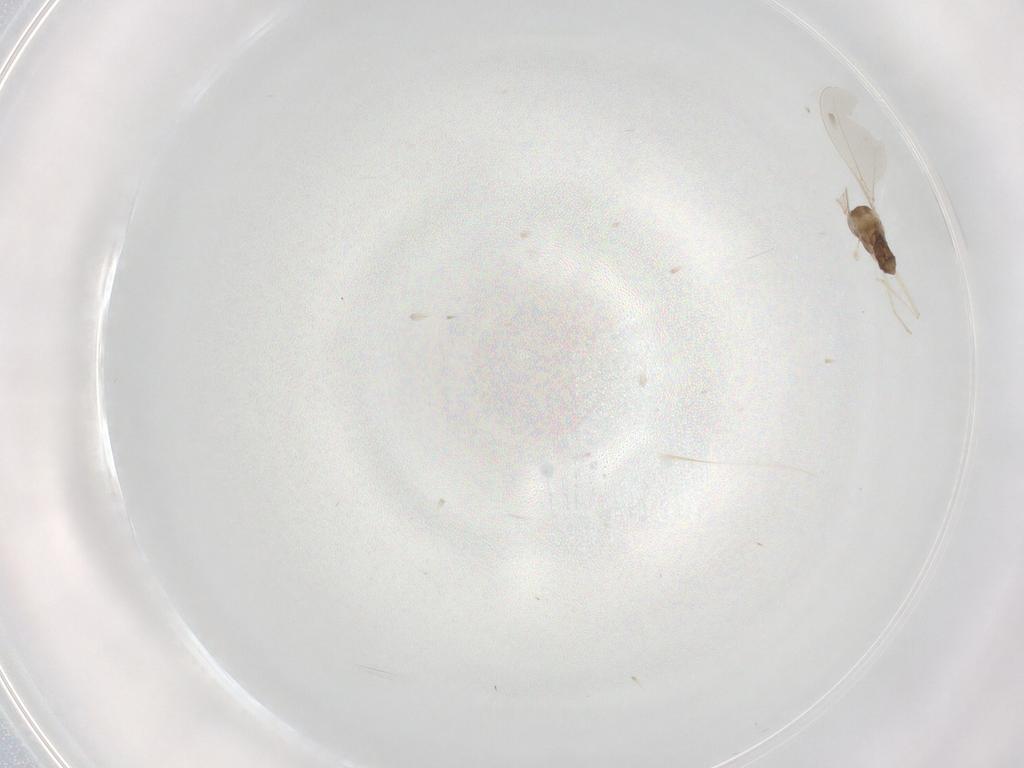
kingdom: Animalia
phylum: Arthropoda
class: Insecta
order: Diptera
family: Cecidomyiidae
